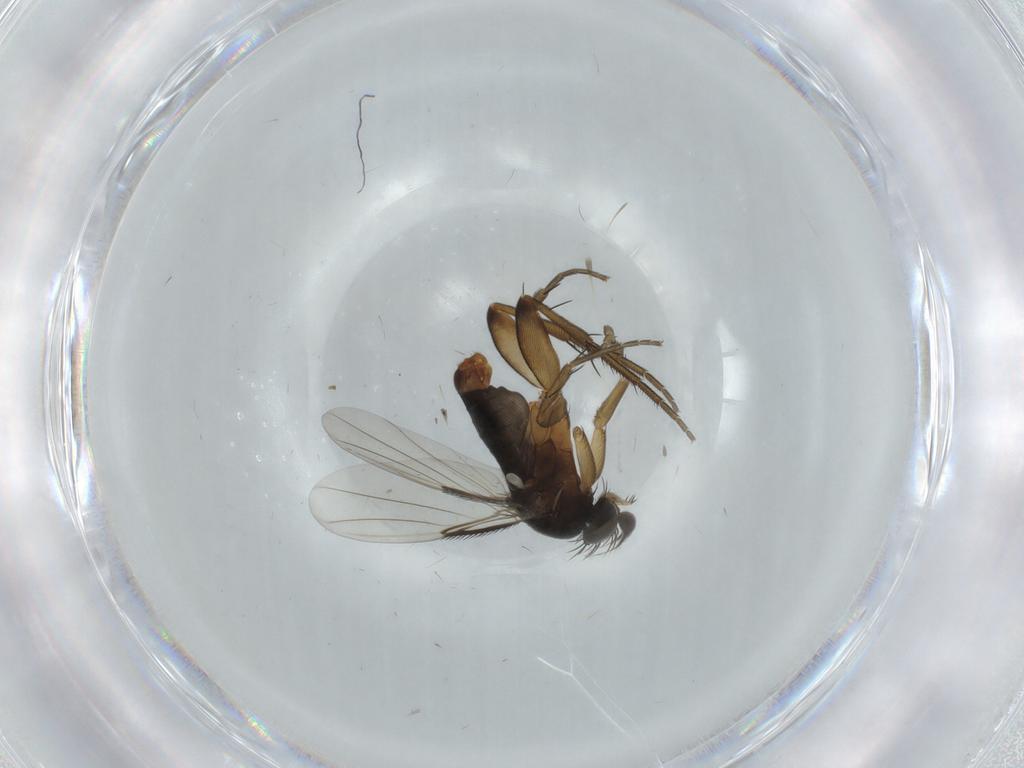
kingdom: Animalia
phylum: Arthropoda
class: Insecta
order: Diptera
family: Phoridae
